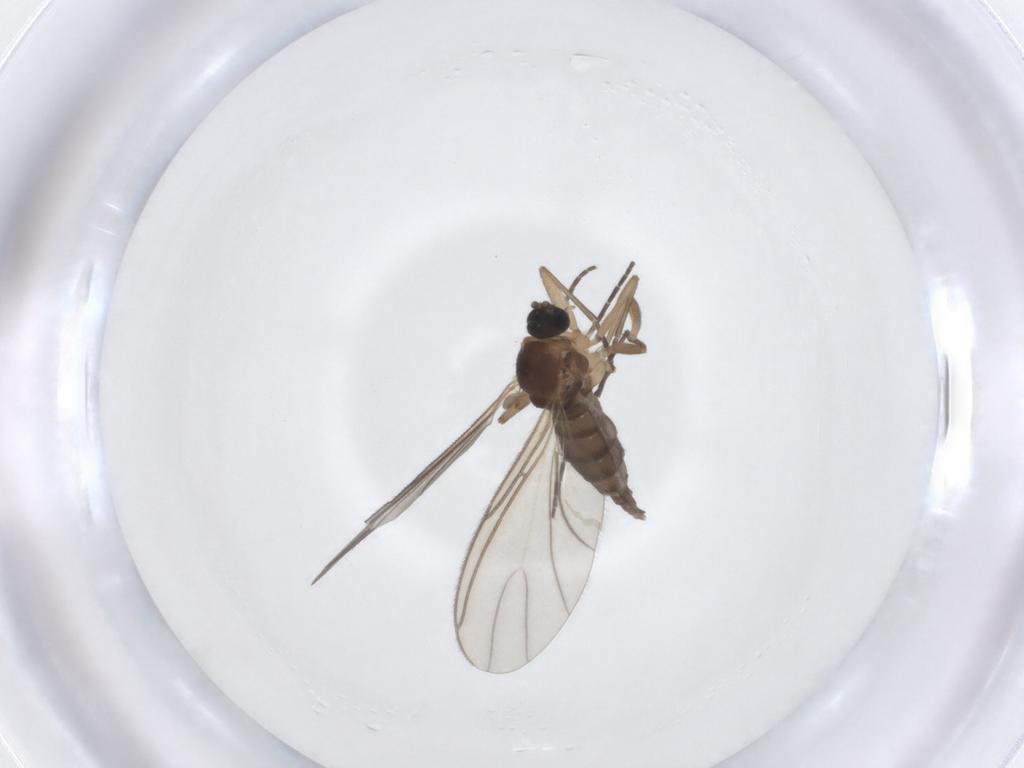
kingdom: Animalia
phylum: Arthropoda
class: Insecta
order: Diptera
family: Sciaridae
